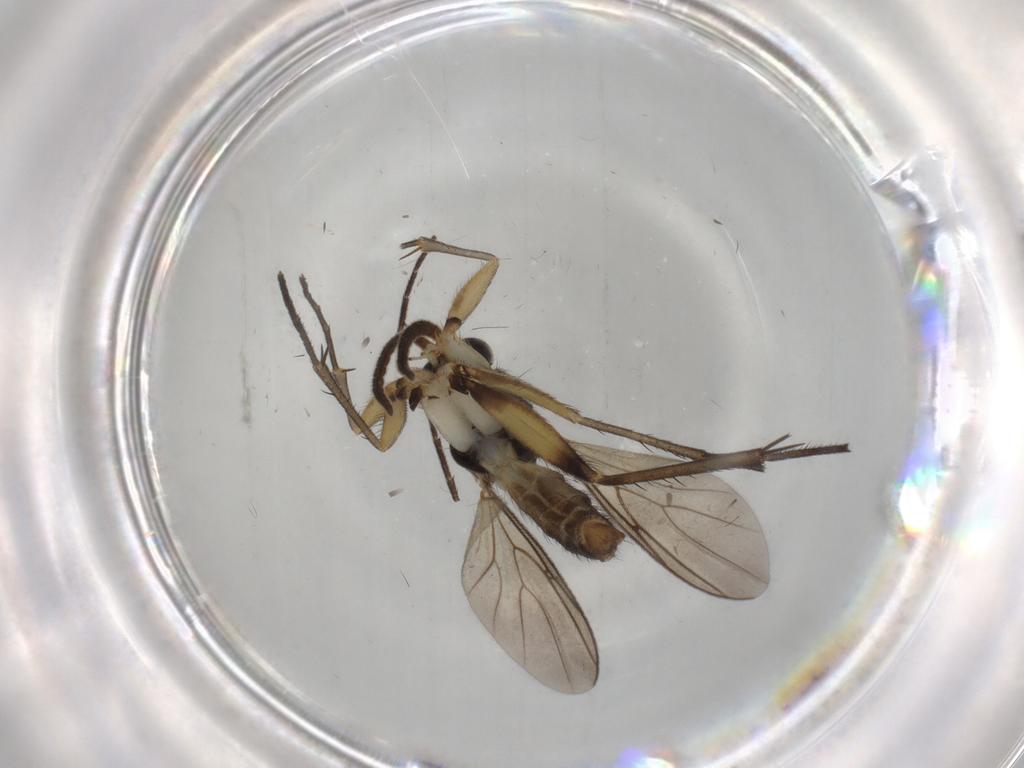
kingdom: Animalia
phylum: Arthropoda
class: Insecta
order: Diptera
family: Mycetophilidae
